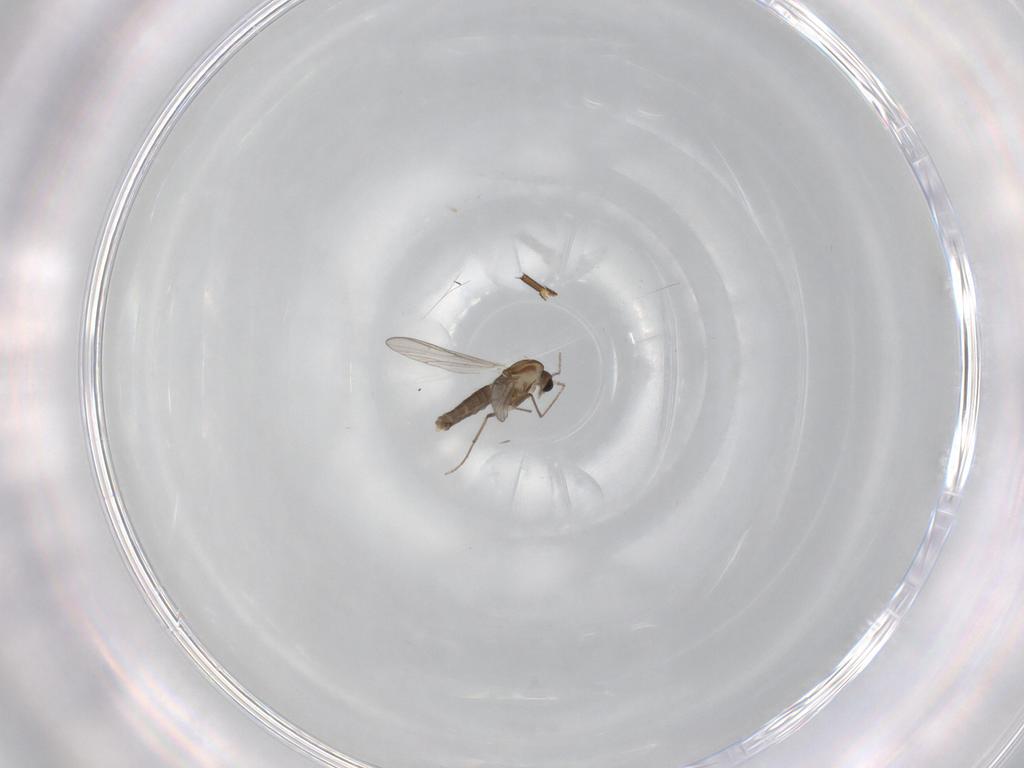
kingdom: Animalia
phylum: Arthropoda
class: Insecta
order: Diptera
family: Chironomidae
